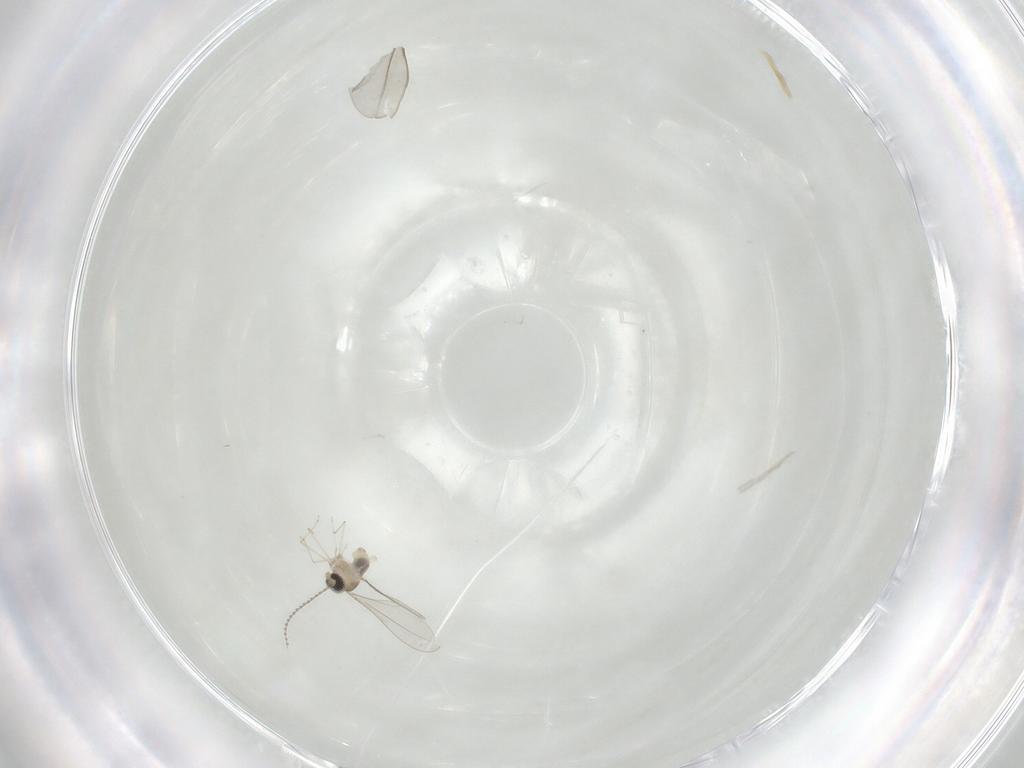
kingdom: Animalia
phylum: Arthropoda
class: Insecta
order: Diptera
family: Cecidomyiidae
